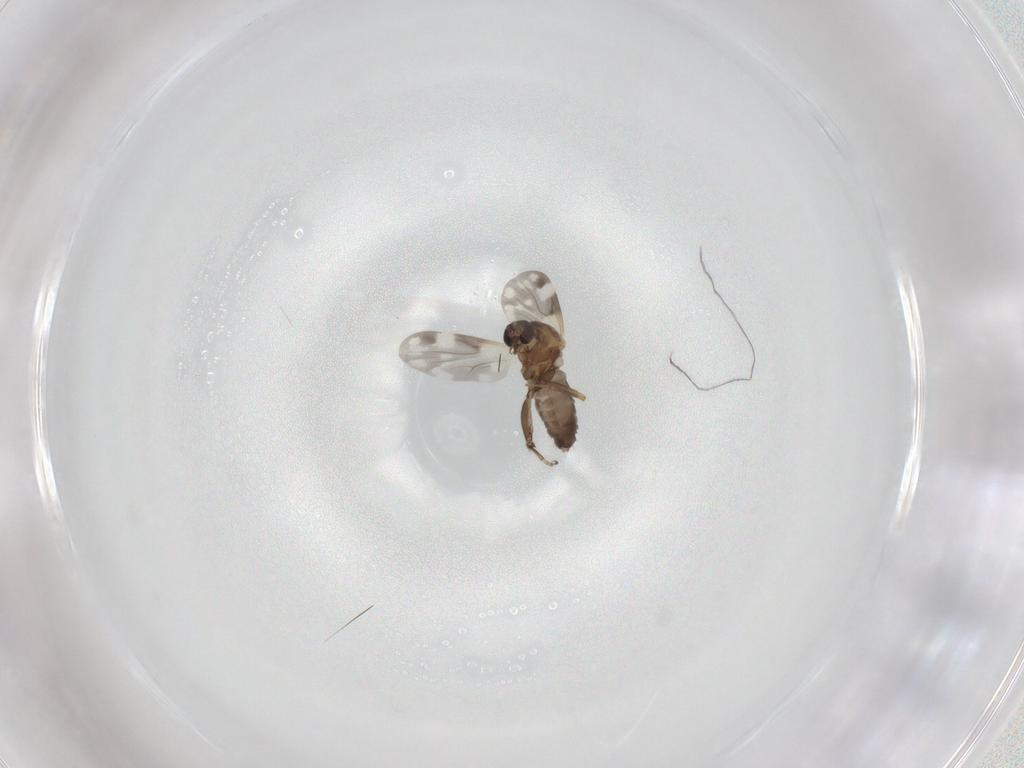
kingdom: Animalia
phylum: Arthropoda
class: Insecta
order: Diptera
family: Ceratopogonidae
